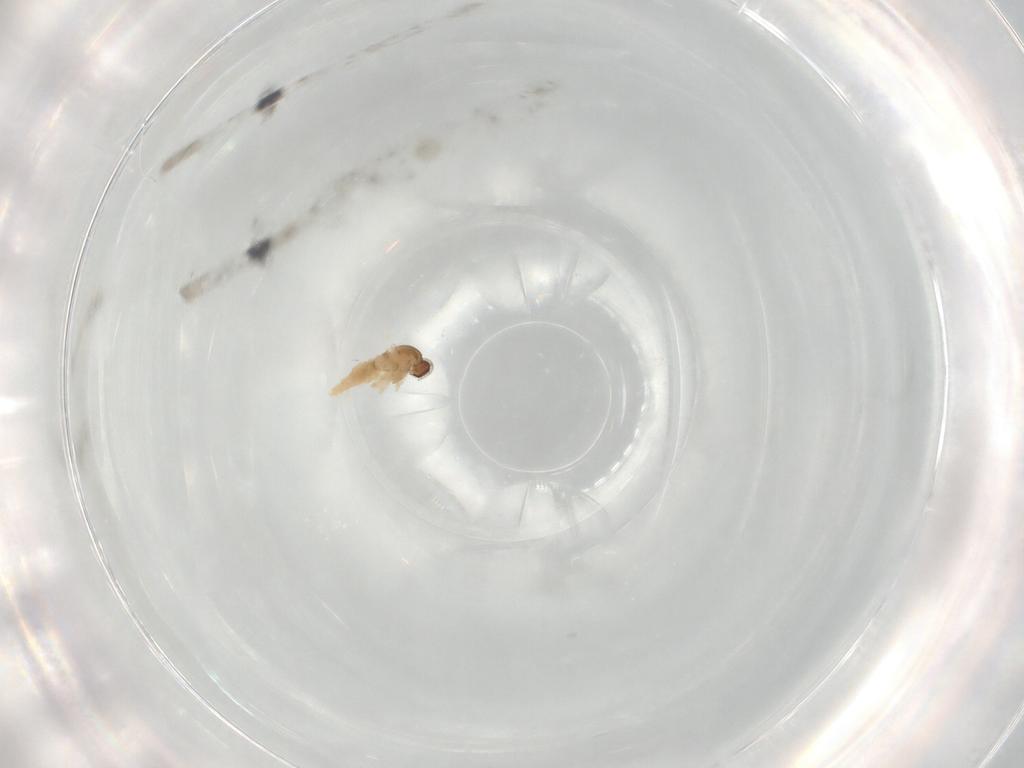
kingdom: Animalia
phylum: Arthropoda
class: Insecta
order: Diptera
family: Cecidomyiidae
